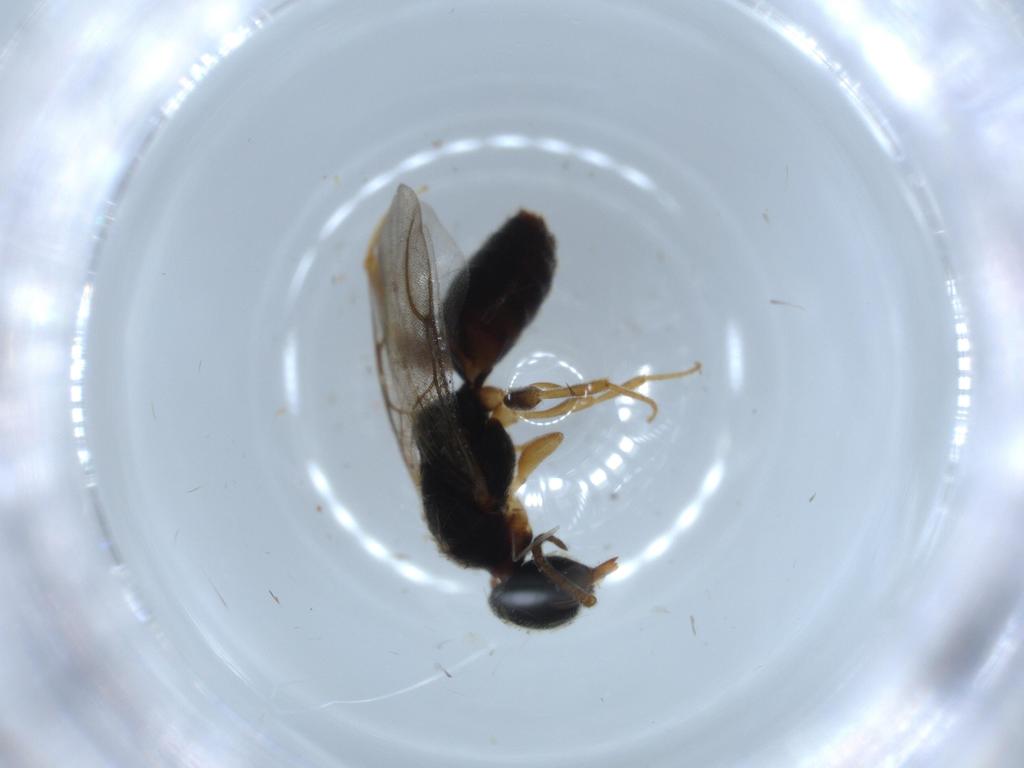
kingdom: Animalia
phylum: Arthropoda
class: Insecta
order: Hymenoptera
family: Bethylidae
